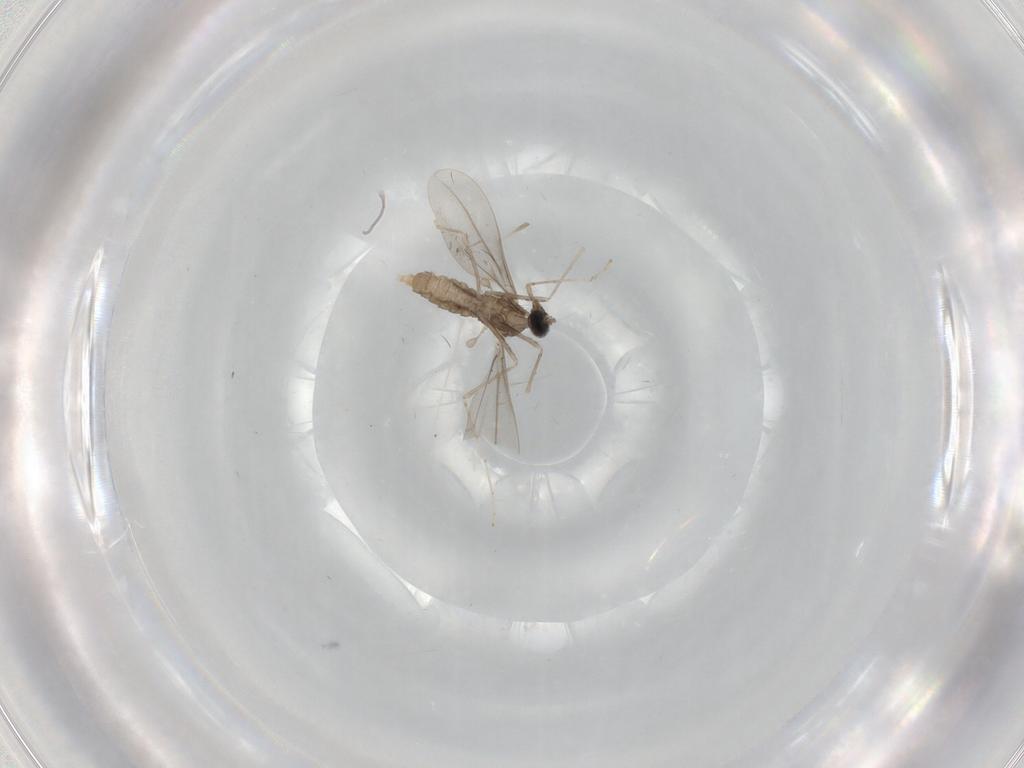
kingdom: Animalia
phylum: Arthropoda
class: Insecta
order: Diptera
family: Cecidomyiidae
